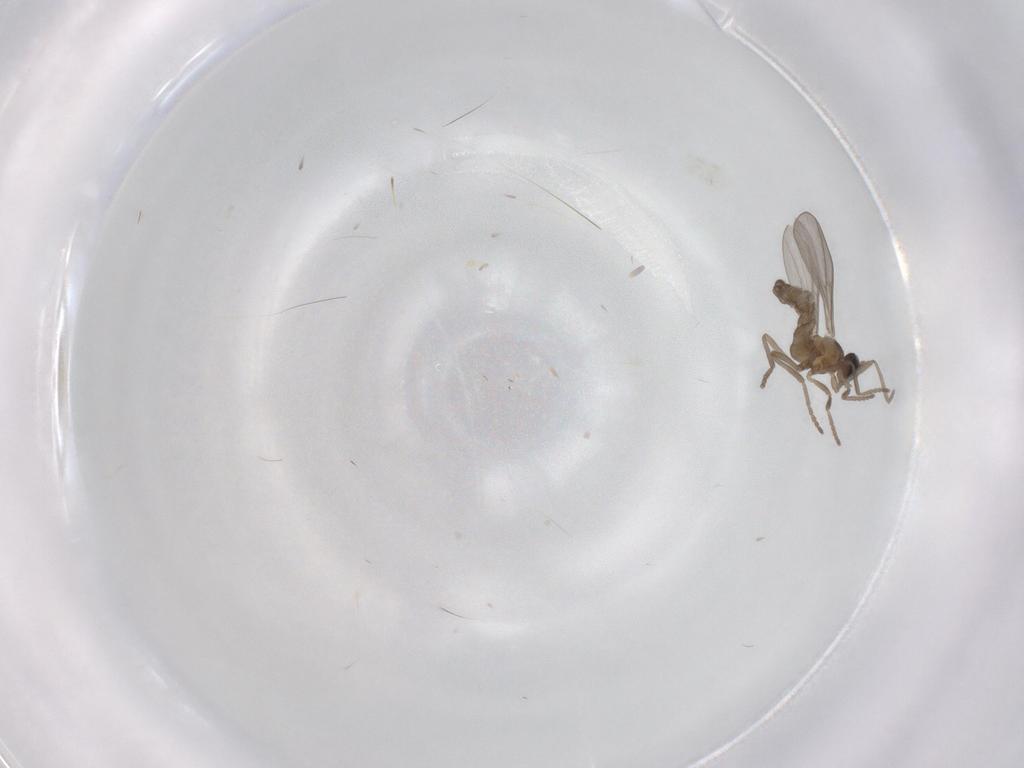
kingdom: Animalia
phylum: Arthropoda
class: Insecta
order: Diptera
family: Cecidomyiidae
